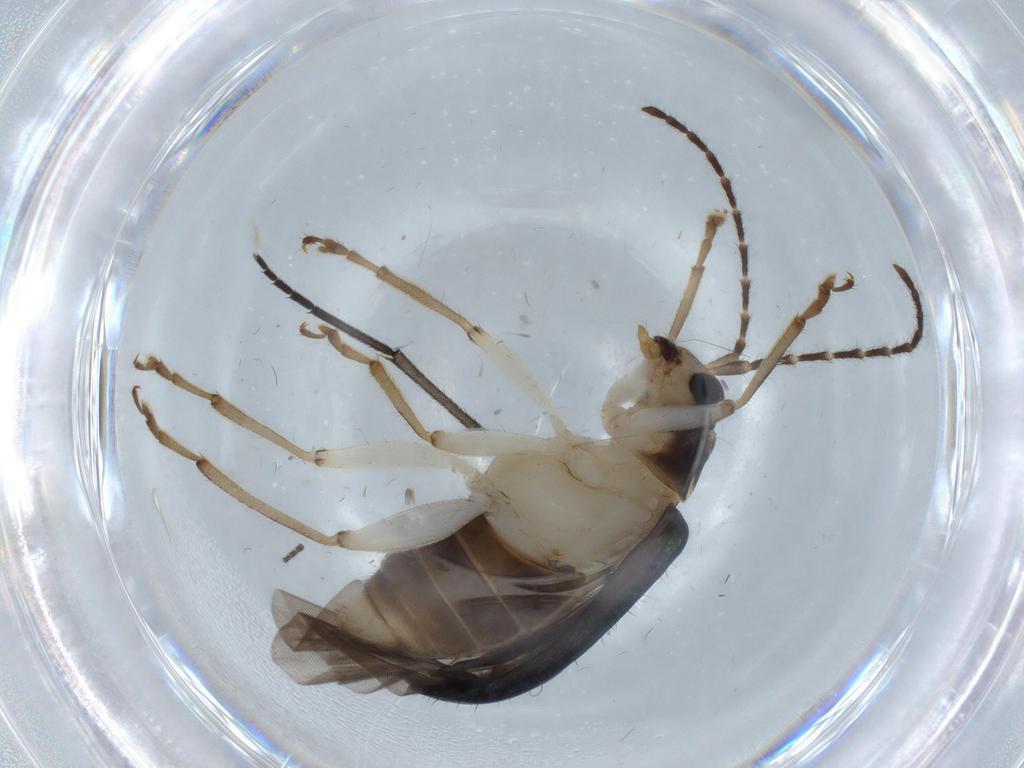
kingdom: Animalia
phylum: Arthropoda
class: Insecta
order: Coleoptera
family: Chrysomelidae
